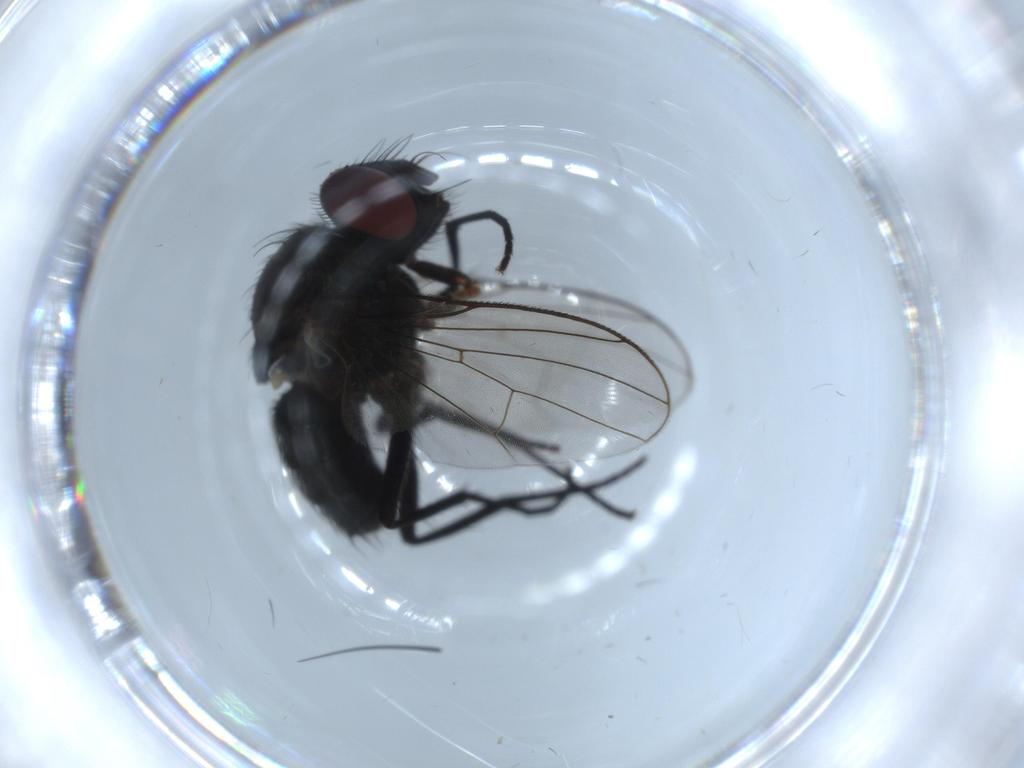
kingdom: Animalia
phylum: Arthropoda
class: Insecta
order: Diptera
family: Muscidae
